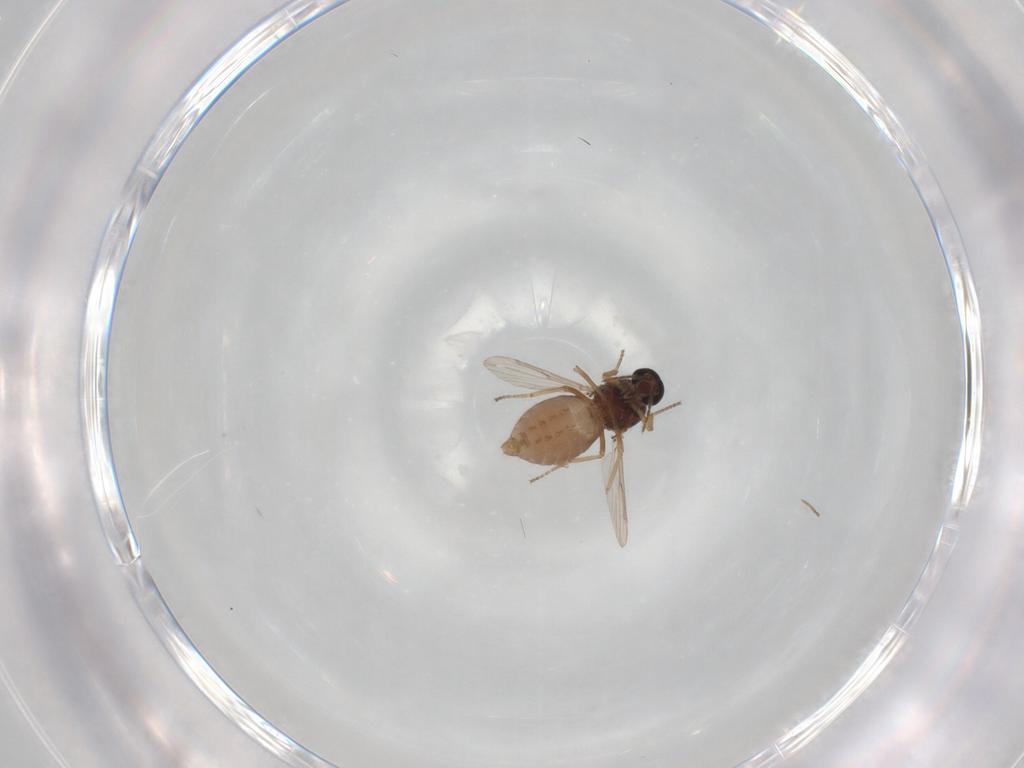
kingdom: Animalia
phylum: Arthropoda
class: Insecta
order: Diptera
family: Ceratopogonidae
